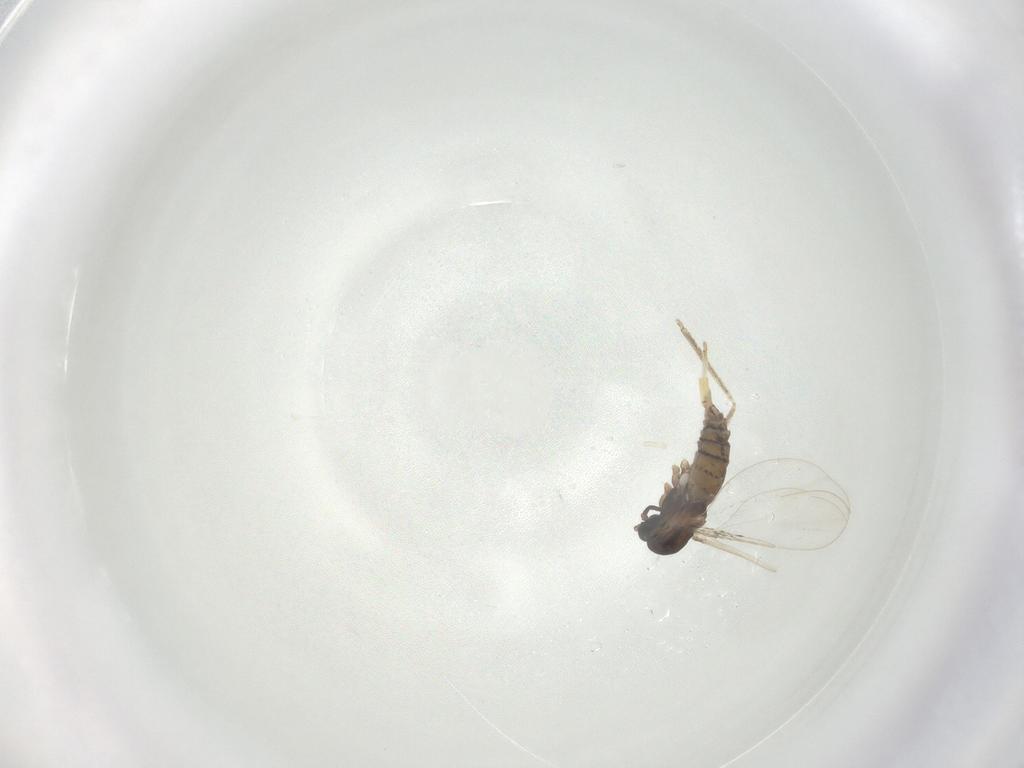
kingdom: Animalia
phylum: Arthropoda
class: Insecta
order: Diptera
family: Cecidomyiidae
